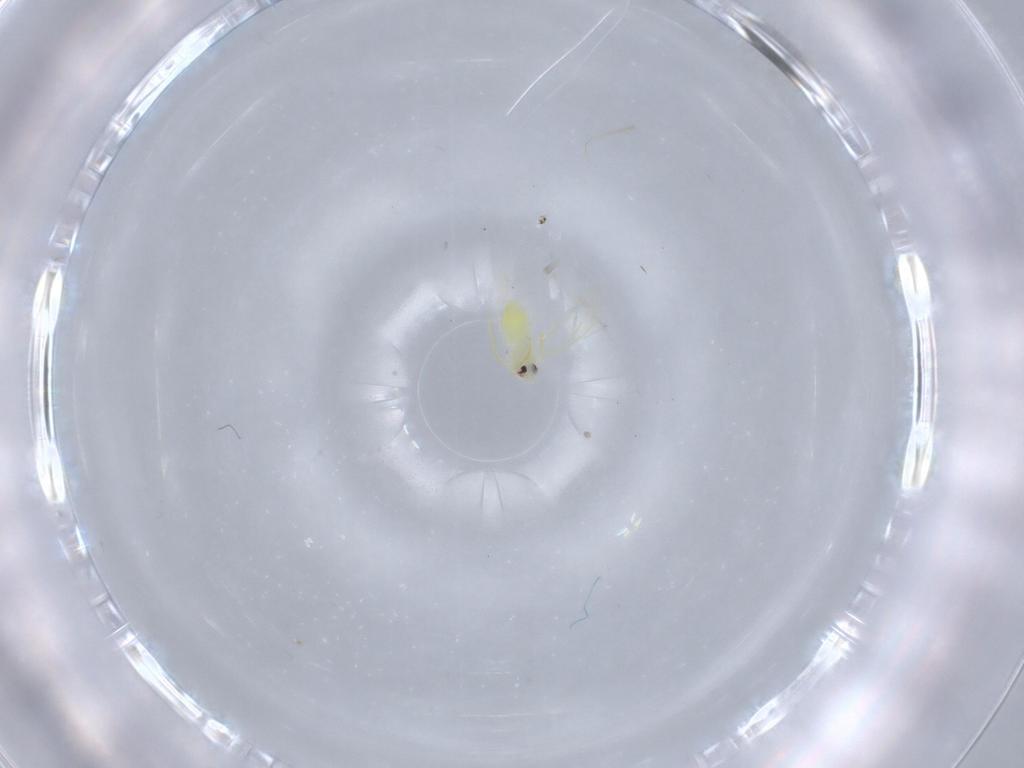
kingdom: Animalia
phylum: Arthropoda
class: Insecta
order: Hemiptera
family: Aleyrodidae
